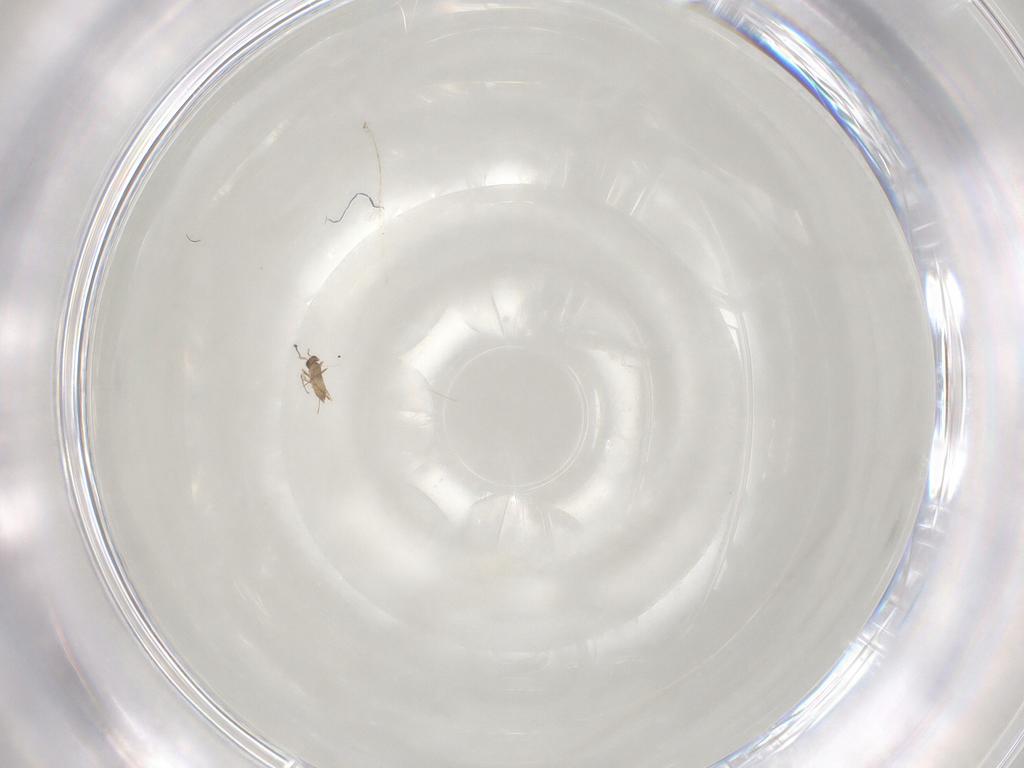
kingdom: Animalia
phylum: Arthropoda
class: Insecta
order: Hymenoptera
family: Mymaridae
